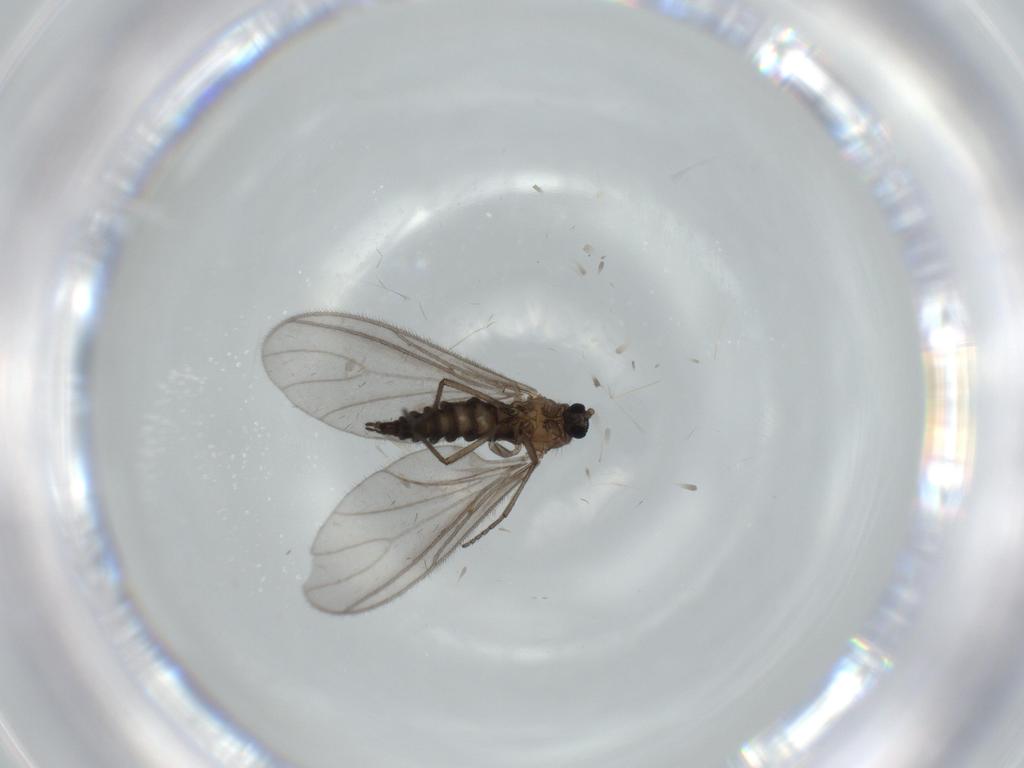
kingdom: Animalia
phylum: Arthropoda
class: Insecta
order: Diptera
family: Sciaridae
